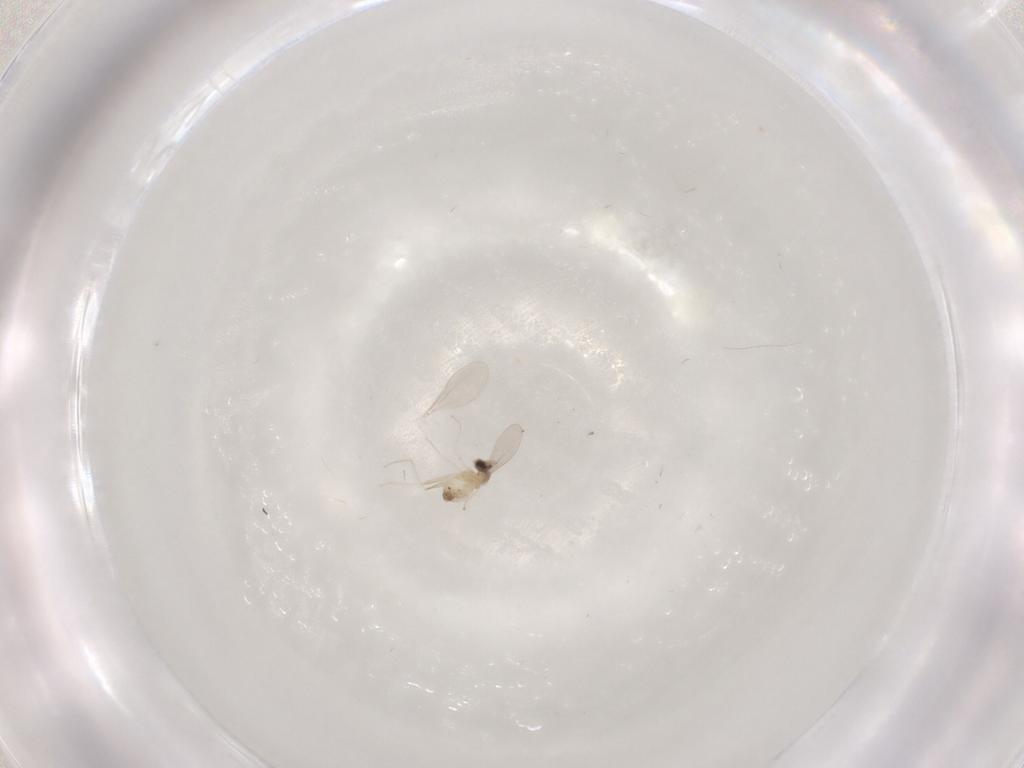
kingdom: Animalia
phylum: Arthropoda
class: Insecta
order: Diptera
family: Cecidomyiidae
